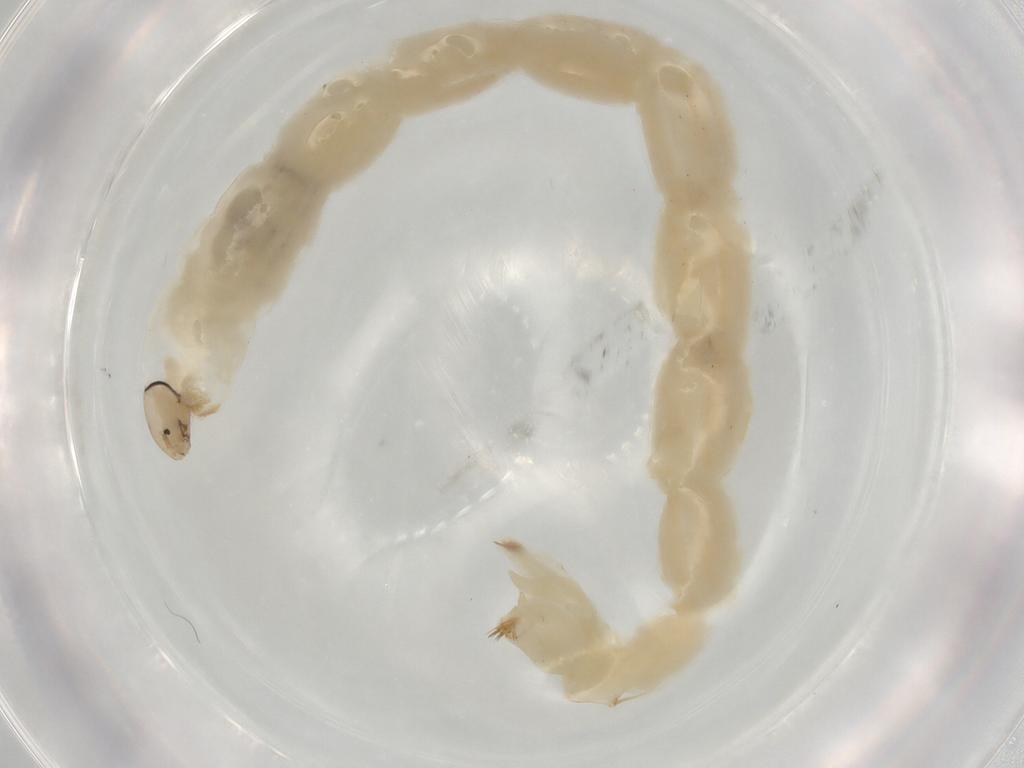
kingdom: Animalia
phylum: Arthropoda
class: Insecta
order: Diptera
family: Chironomidae
